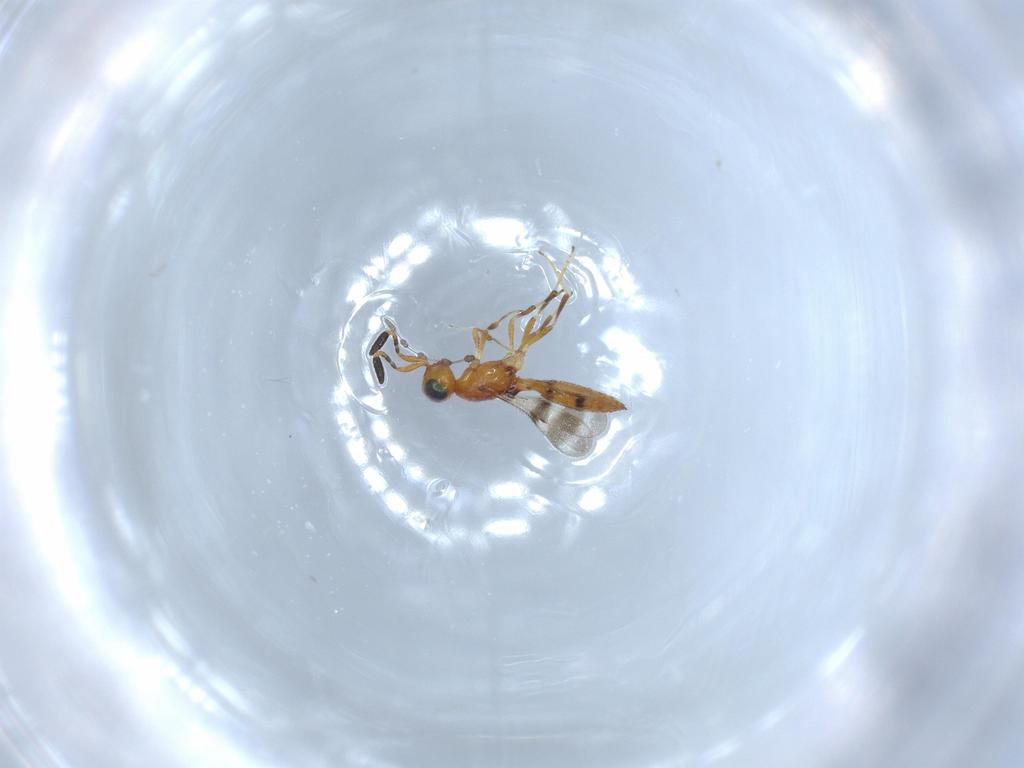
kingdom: Animalia
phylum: Arthropoda
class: Insecta
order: Hymenoptera
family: Scelionidae
